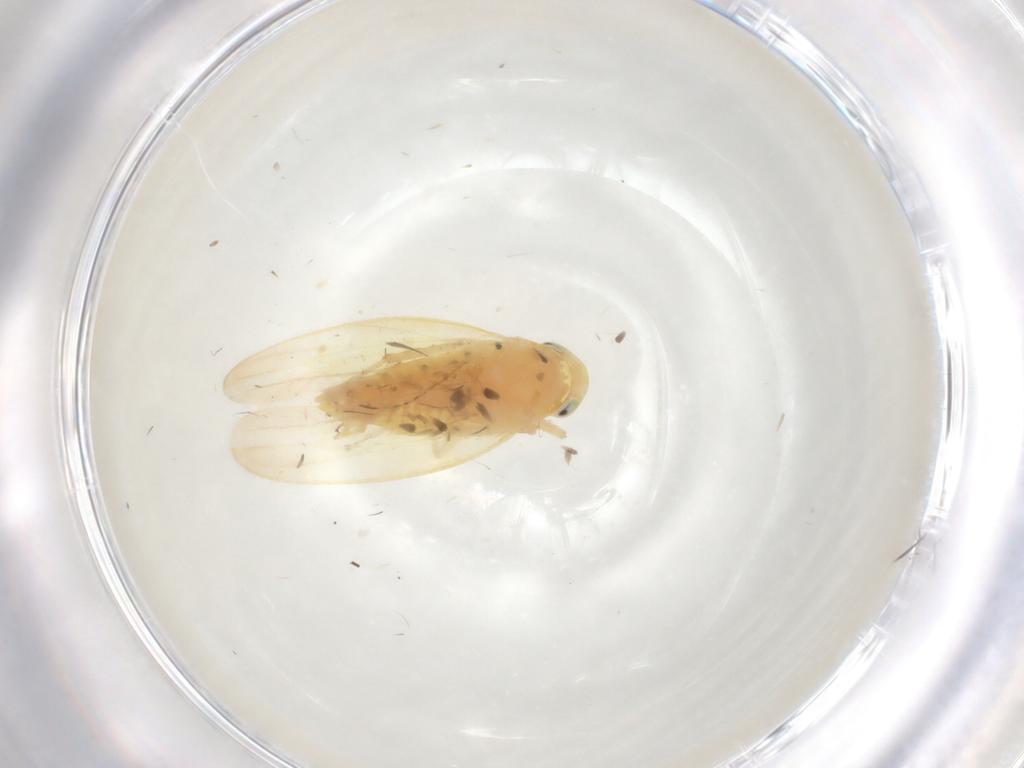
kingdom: Animalia
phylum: Arthropoda
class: Insecta
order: Hemiptera
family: Cicadellidae
